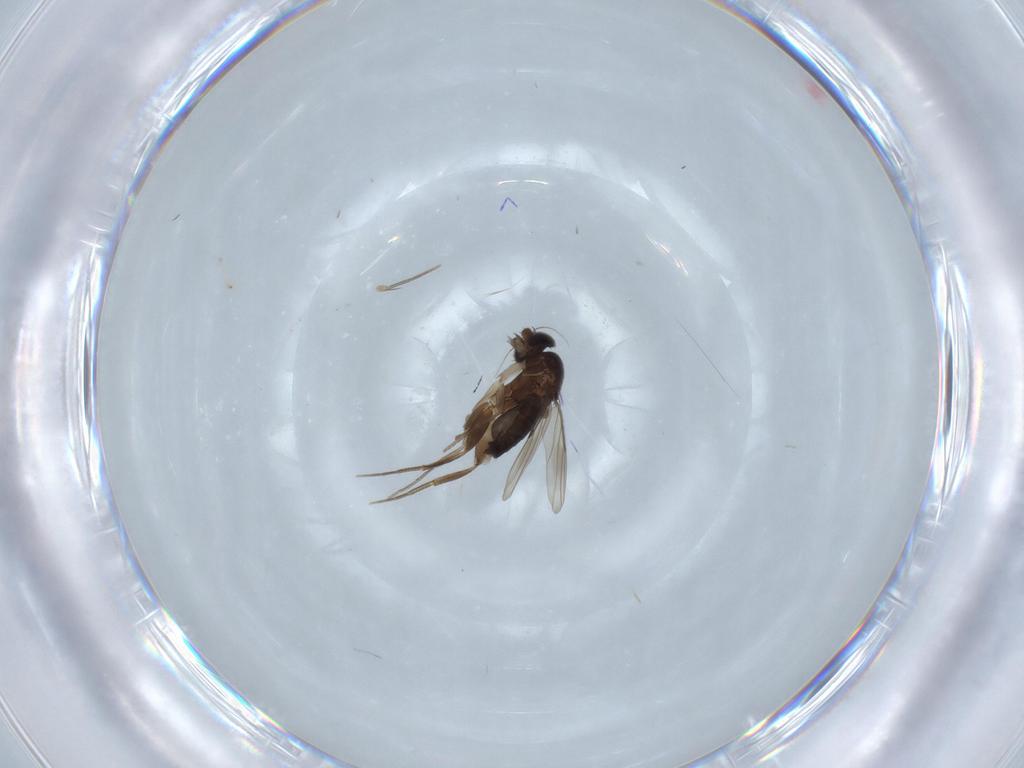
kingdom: Animalia
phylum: Arthropoda
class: Insecta
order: Diptera
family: Phoridae
